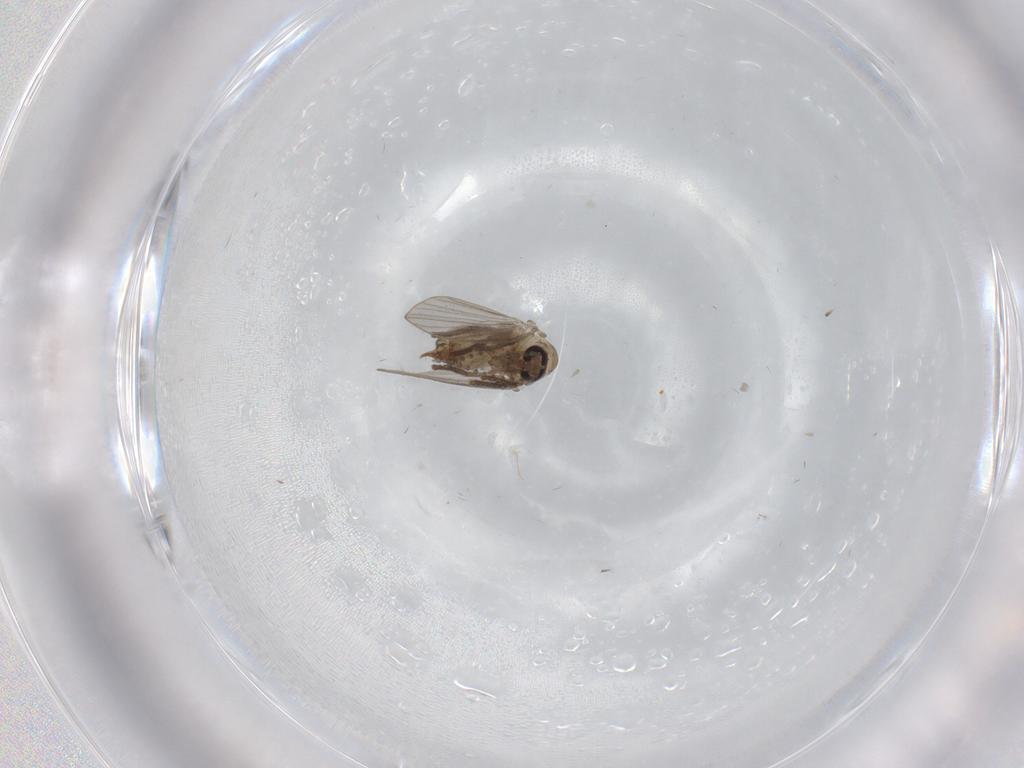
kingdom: Animalia
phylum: Arthropoda
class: Insecta
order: Diptera
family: Psychodidae
